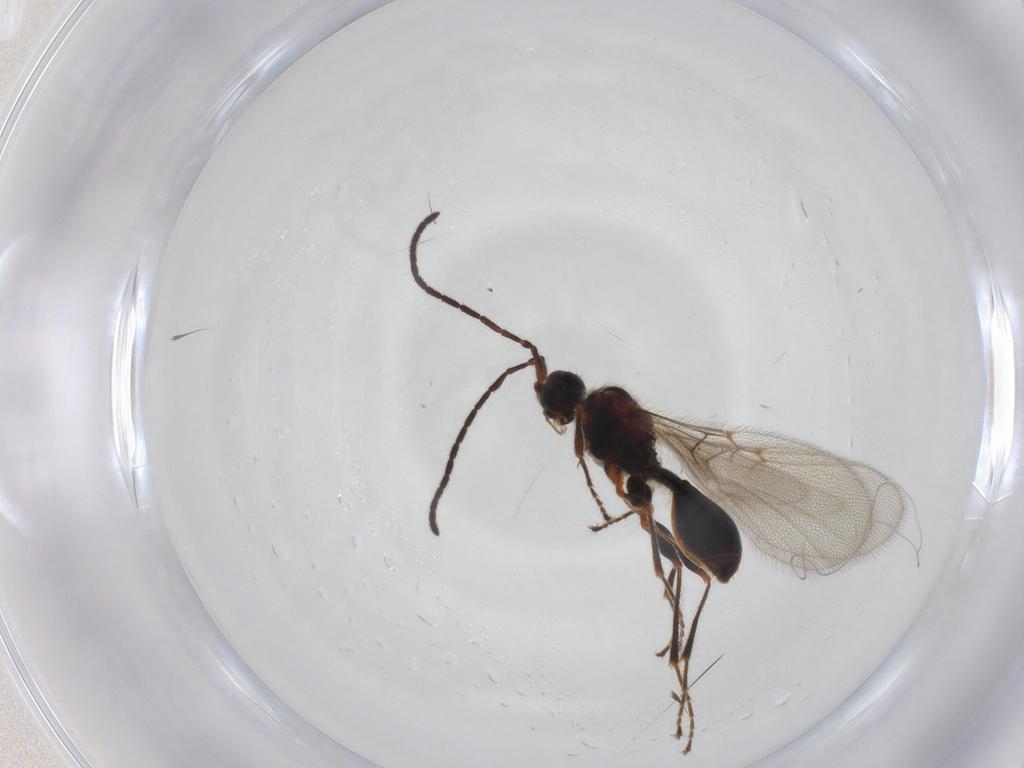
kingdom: Animalia
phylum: Arthropoda
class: Insecta
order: Hymenoptera
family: Diapriidae
